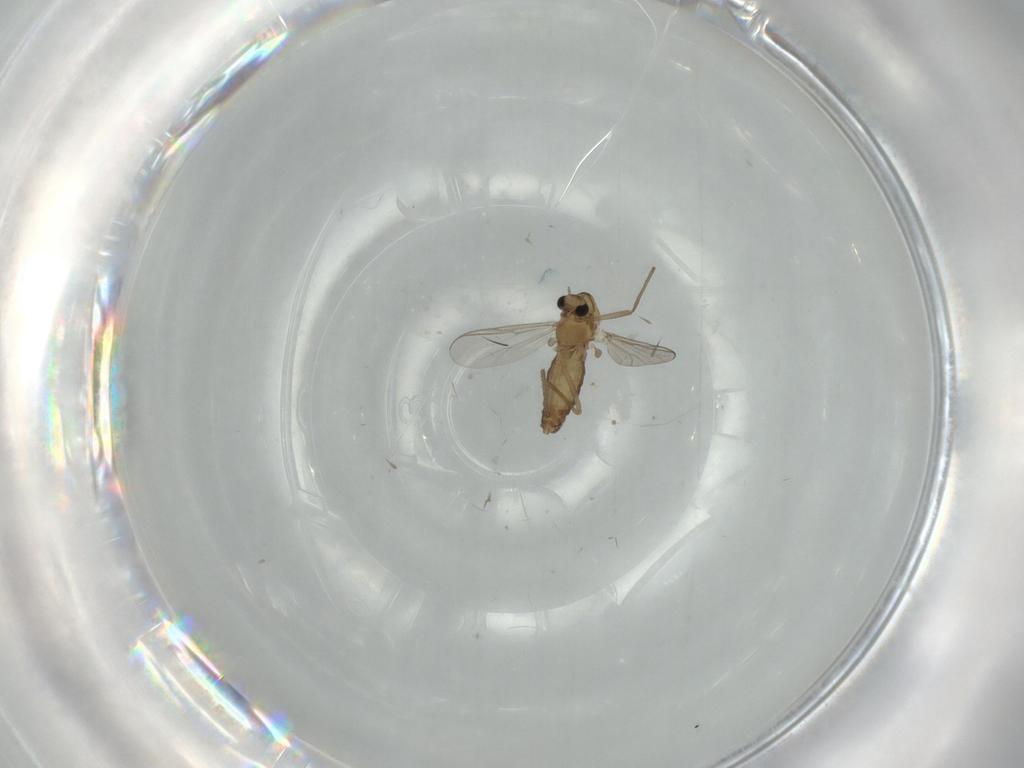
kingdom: Animalia
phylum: Arthropoda
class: Insecta
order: Diptera
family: Chironomidae
